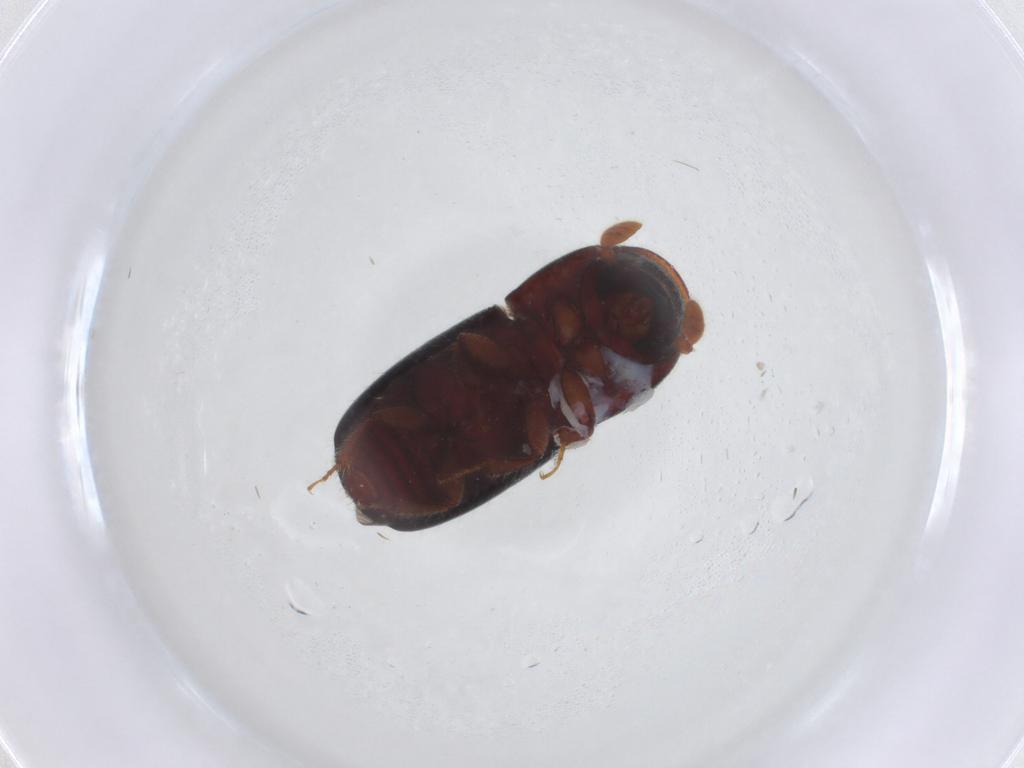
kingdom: Animalia
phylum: Arthropoda
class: Insecta
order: Coleoptera
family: Curculionidae
